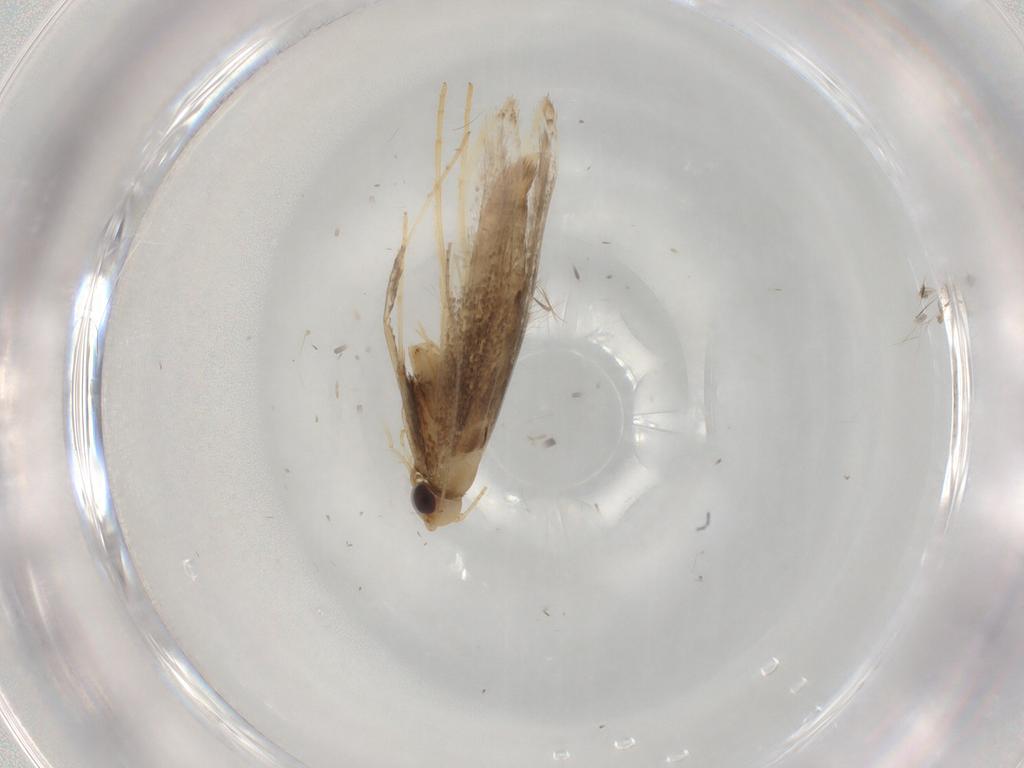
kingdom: Animalia
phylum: Arthropoda
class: Insecta
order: Lepidoptera
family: Gracillariidae
